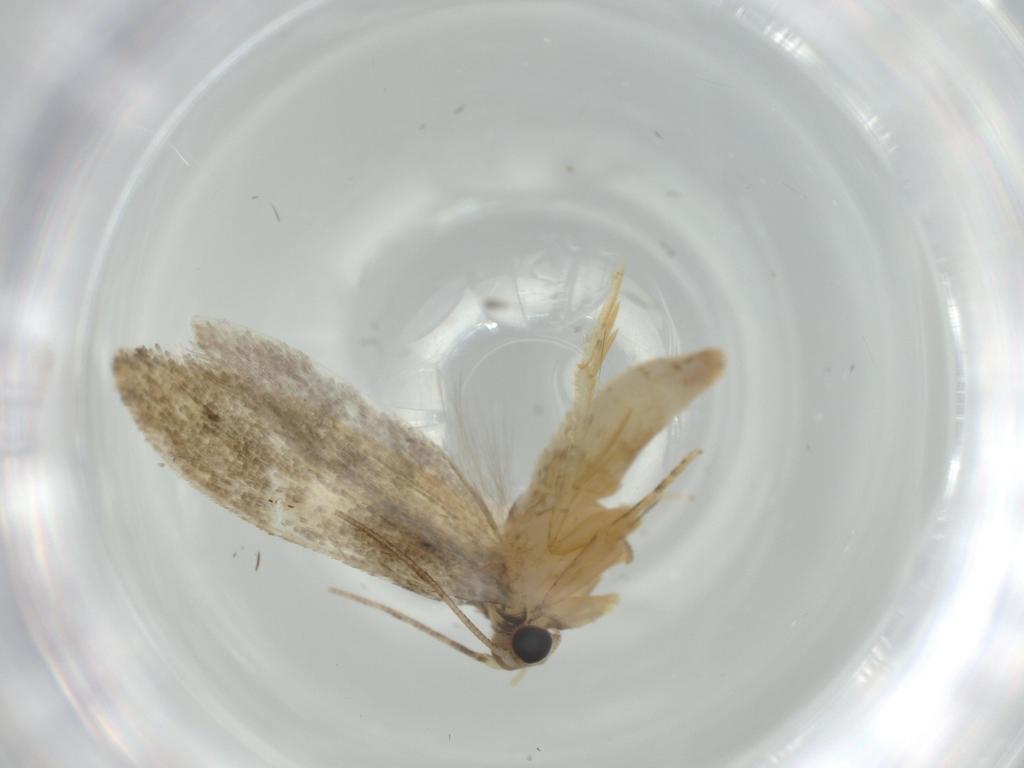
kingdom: Animalia
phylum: Arthropoda
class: Insecta
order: Lepidoptera
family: Tineidae
